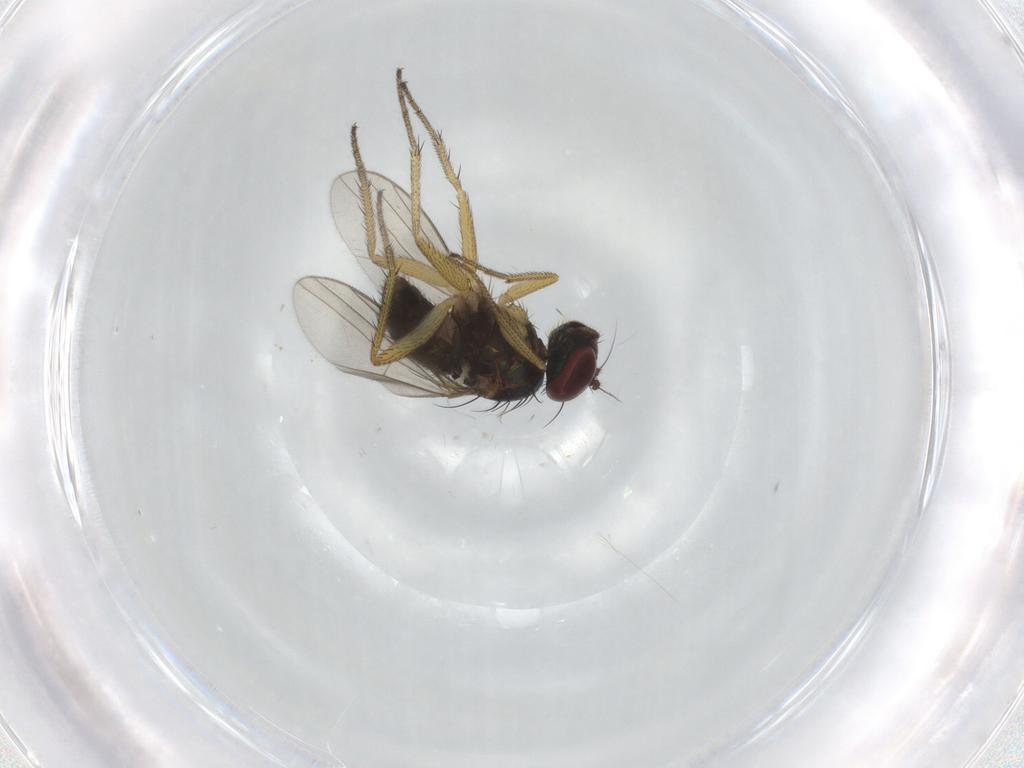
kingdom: Animalia
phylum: Arthropoda
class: Insecta
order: Diptera
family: Dolichopodidae
